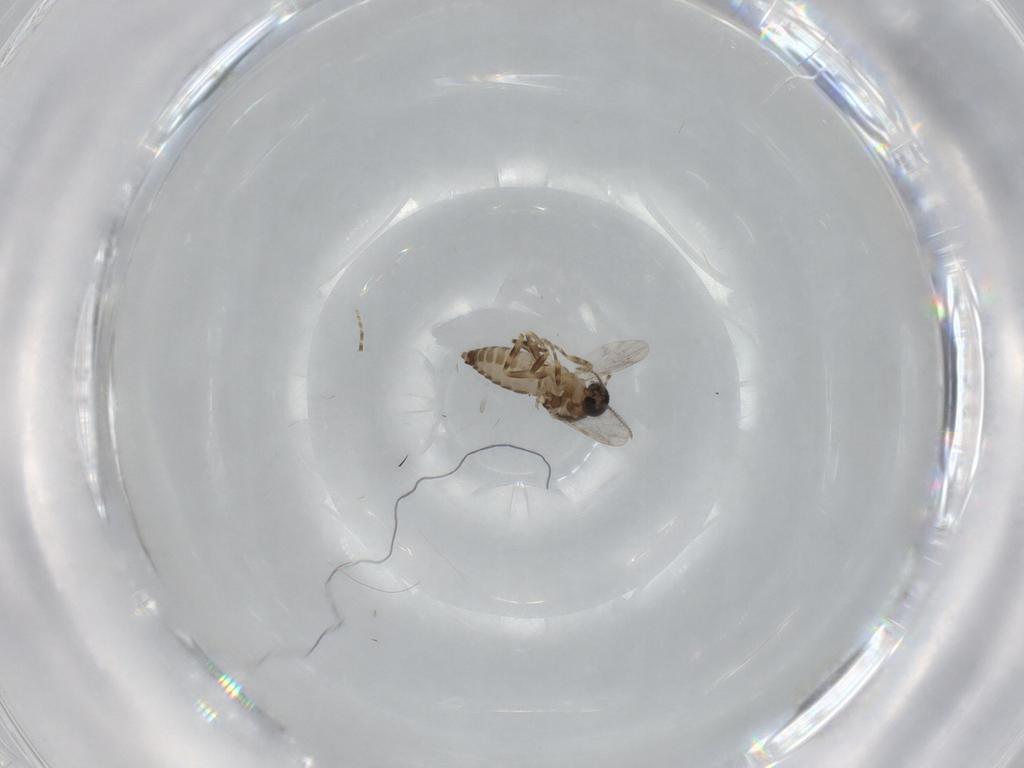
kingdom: Animalia
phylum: Arthropoda
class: Insecta
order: Diptera
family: Ceratopogonidae
